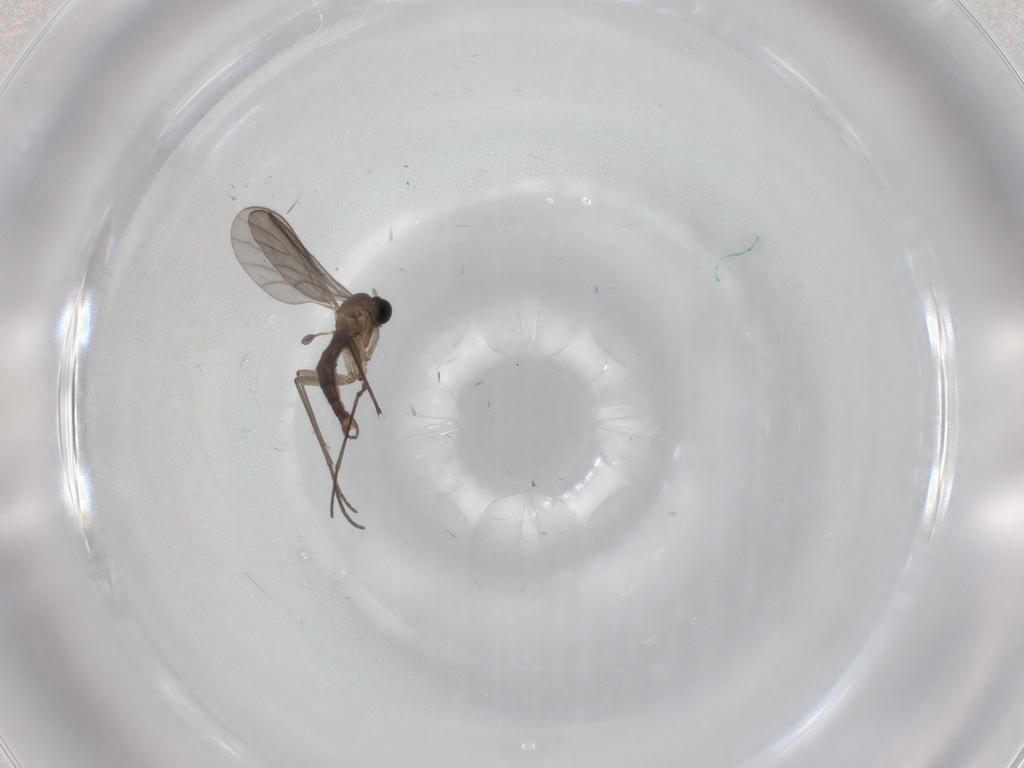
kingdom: Animalia
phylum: Arthropoda
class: Insecta
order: Diptera
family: Sciaridae
